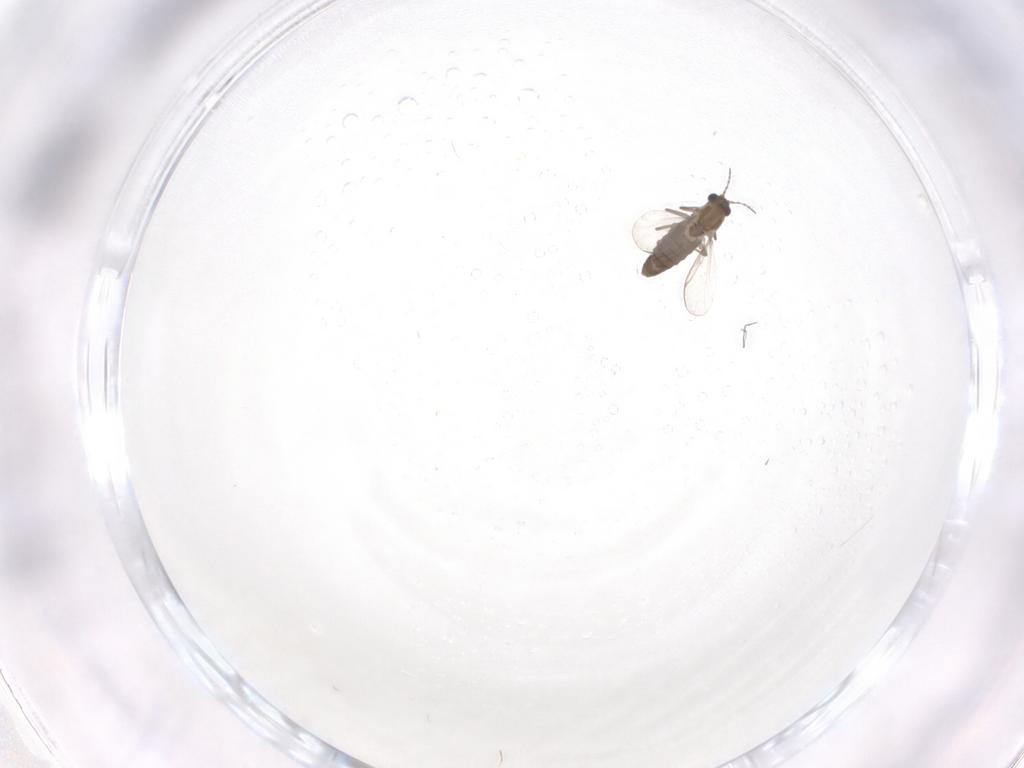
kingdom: Animalia
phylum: Arthropoda
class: Insecta
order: Diptera
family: Chironomidae
